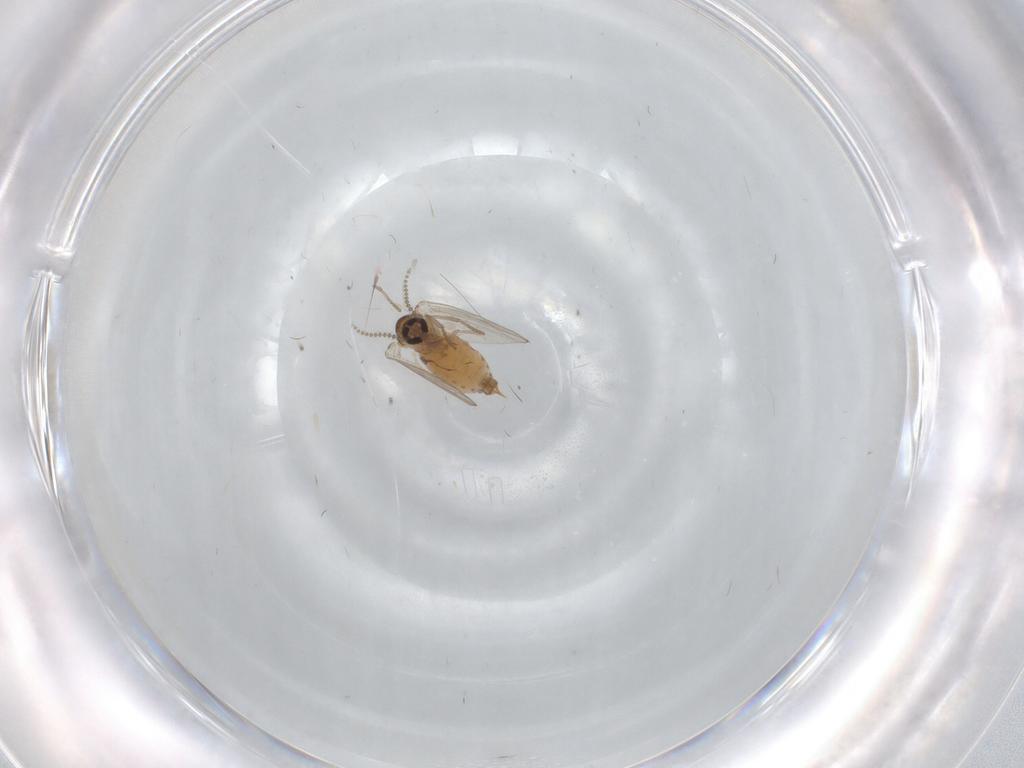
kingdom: Animalia
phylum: Arthropoda
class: Insecta
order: Diptera
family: Psychodidae
